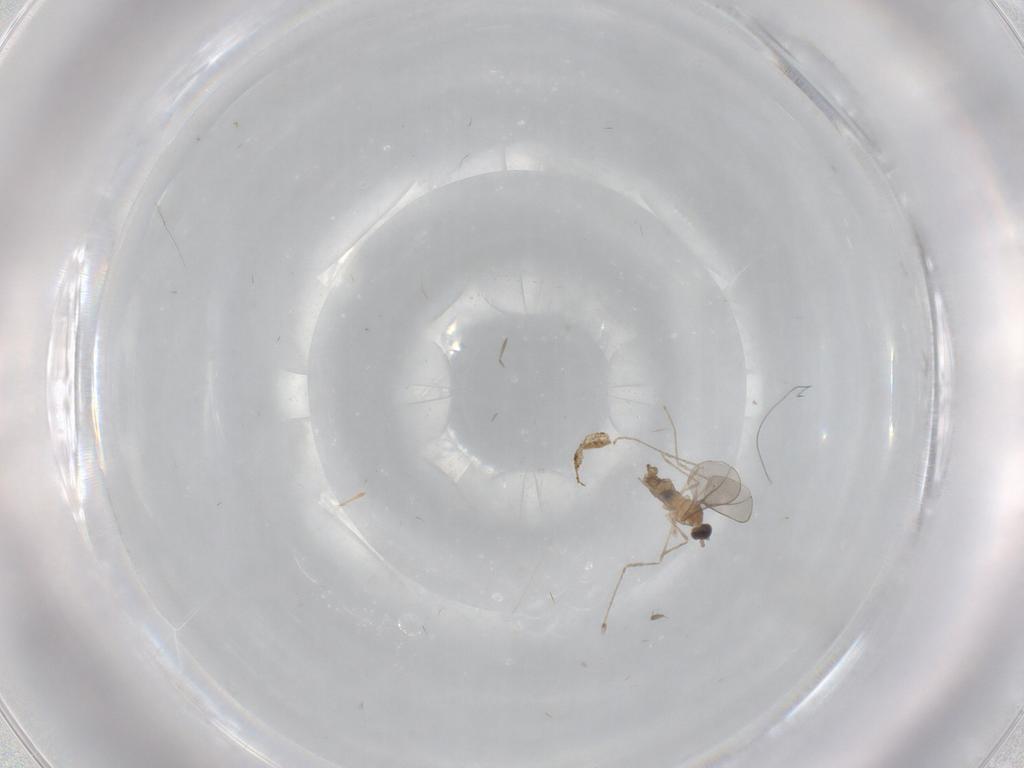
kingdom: Animalia
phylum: Arthropoda
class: Insecta
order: Diptera
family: Cecidomyiidae
